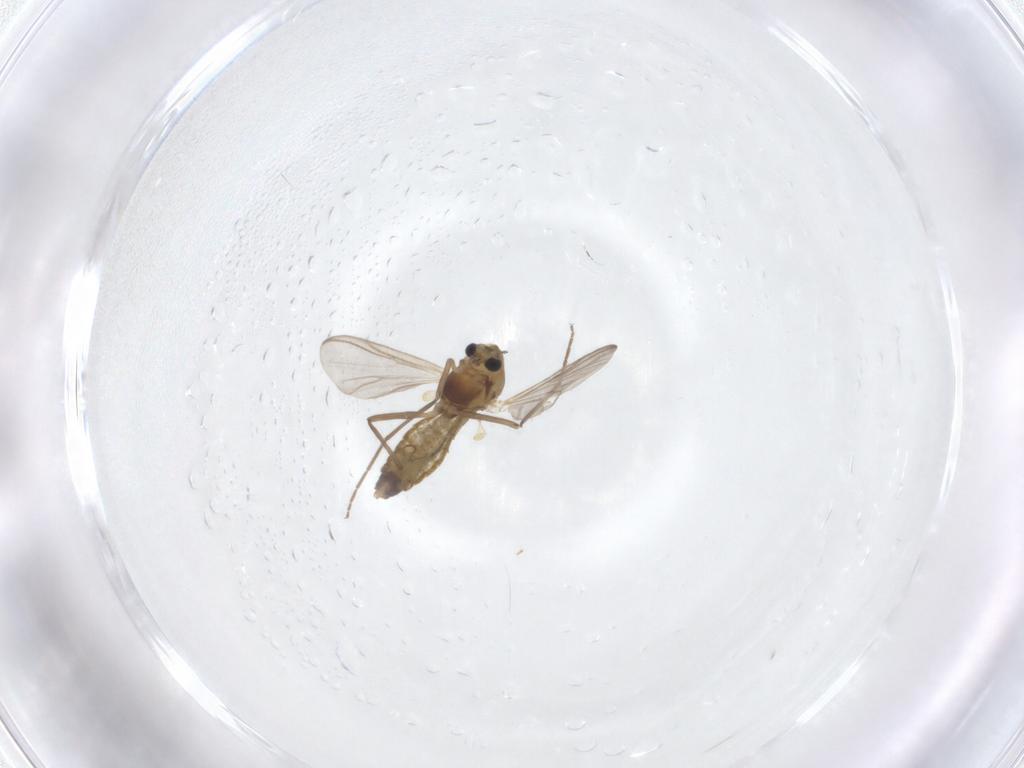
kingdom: Animalia
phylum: Arthropoda
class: Insecta
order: Diptera
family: Chironomidae
